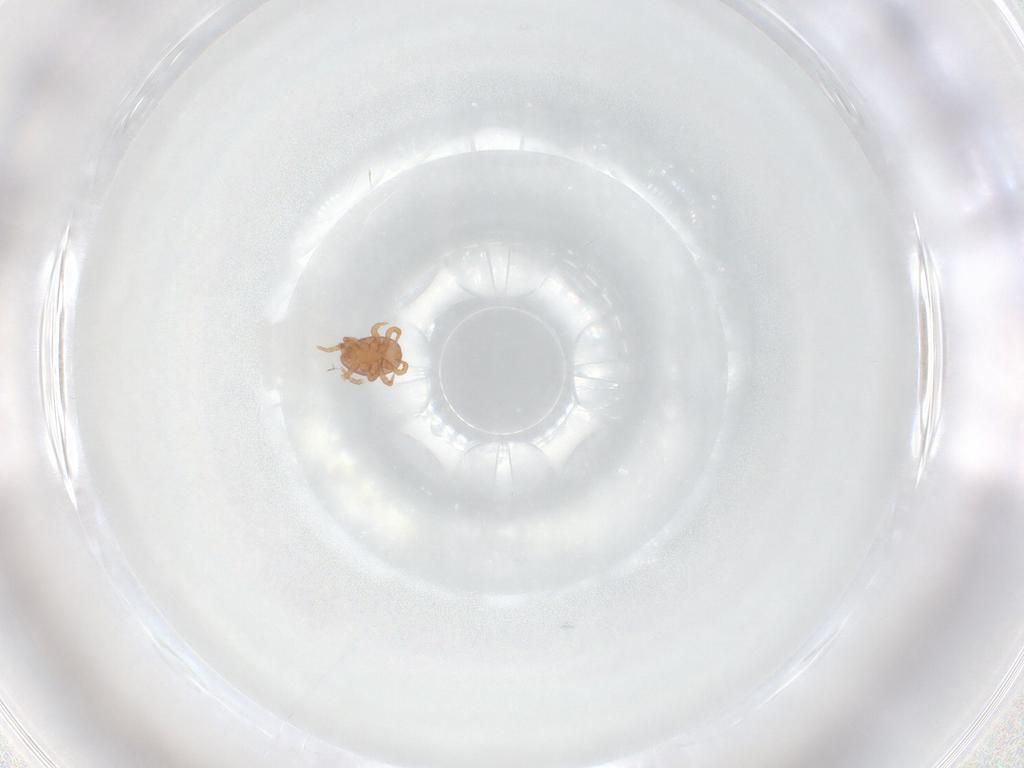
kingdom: Animalia
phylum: Arthropoda
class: Arachnida
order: Mesostigmata
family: Eviphididae
